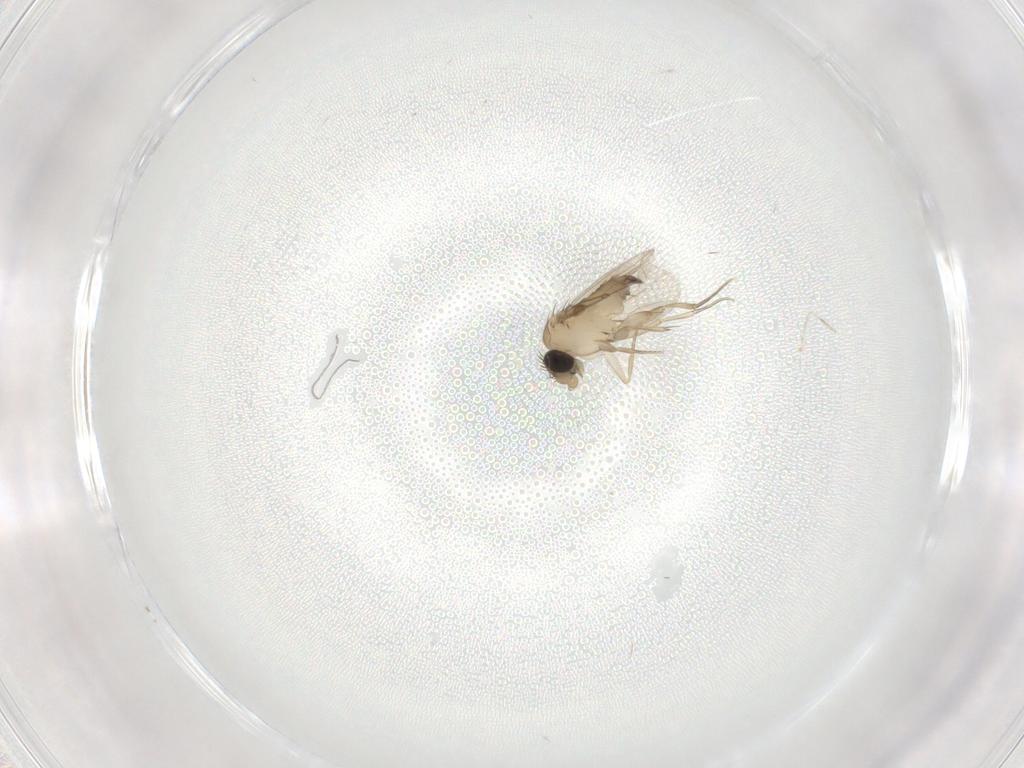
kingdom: Animalia
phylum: Arthropoda
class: Insecta
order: Diptera
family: Phoridae
